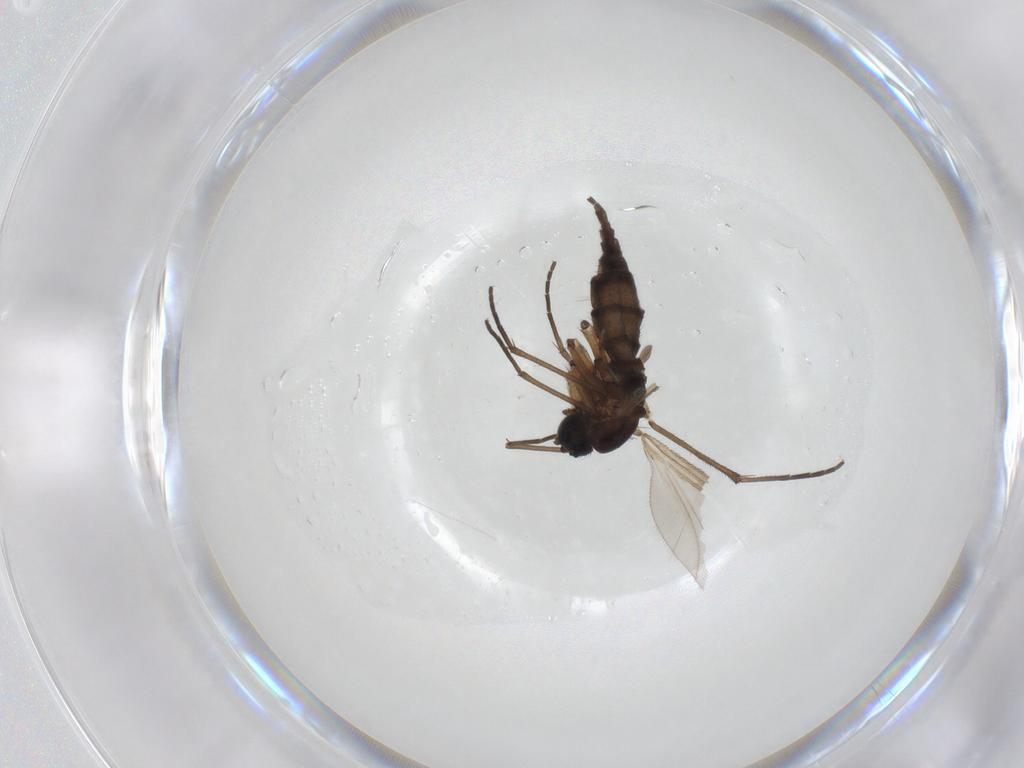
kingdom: Animalia
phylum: Arthropoda
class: Insecta
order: Diptera
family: Sciaridae
